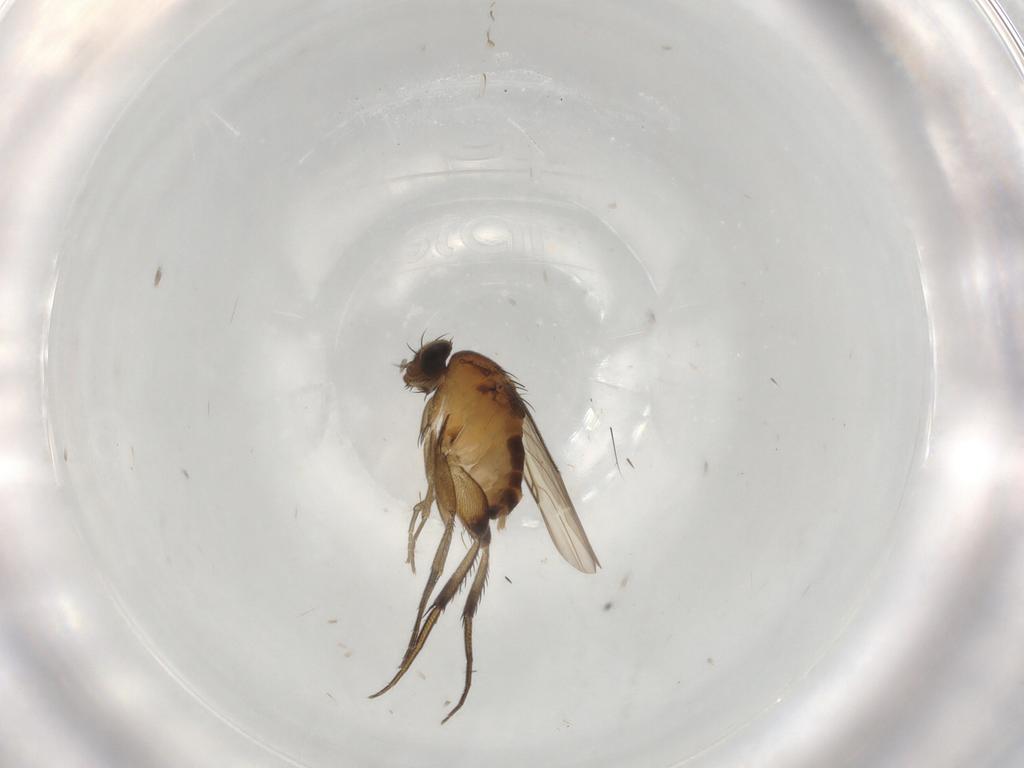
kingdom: Animalia
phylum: Arthropoda
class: Insecta
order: Diptera
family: Phoridae
